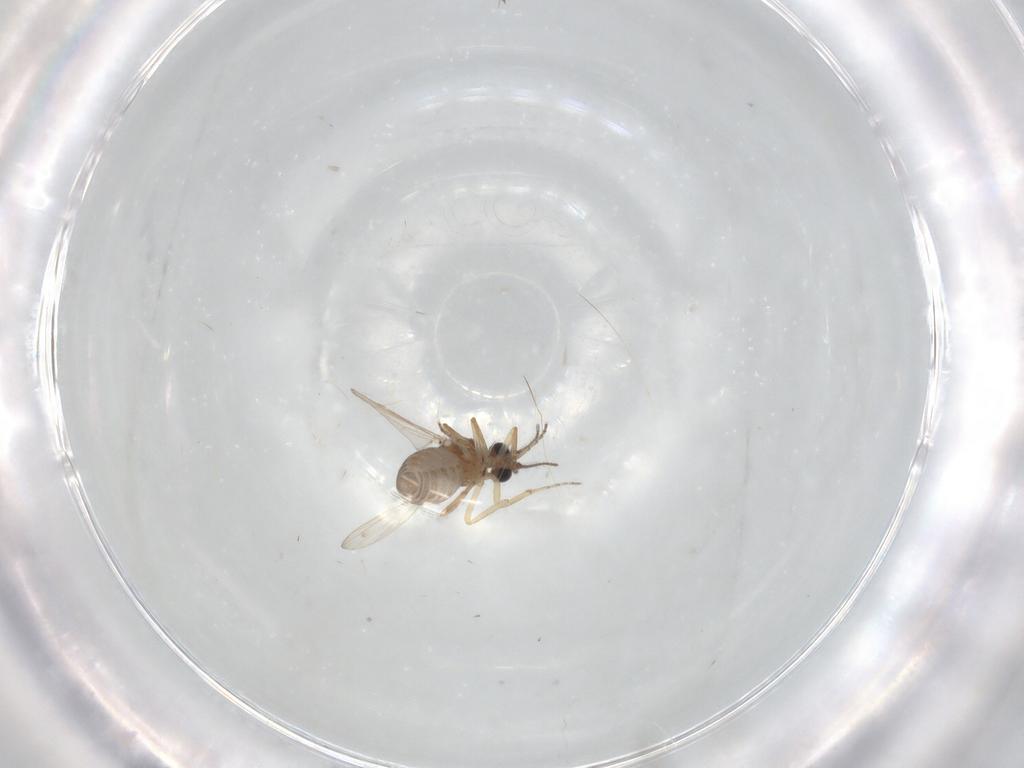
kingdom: Animalia
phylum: Arthropoda
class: Insecta
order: Diptera
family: Ceratopogonidae
